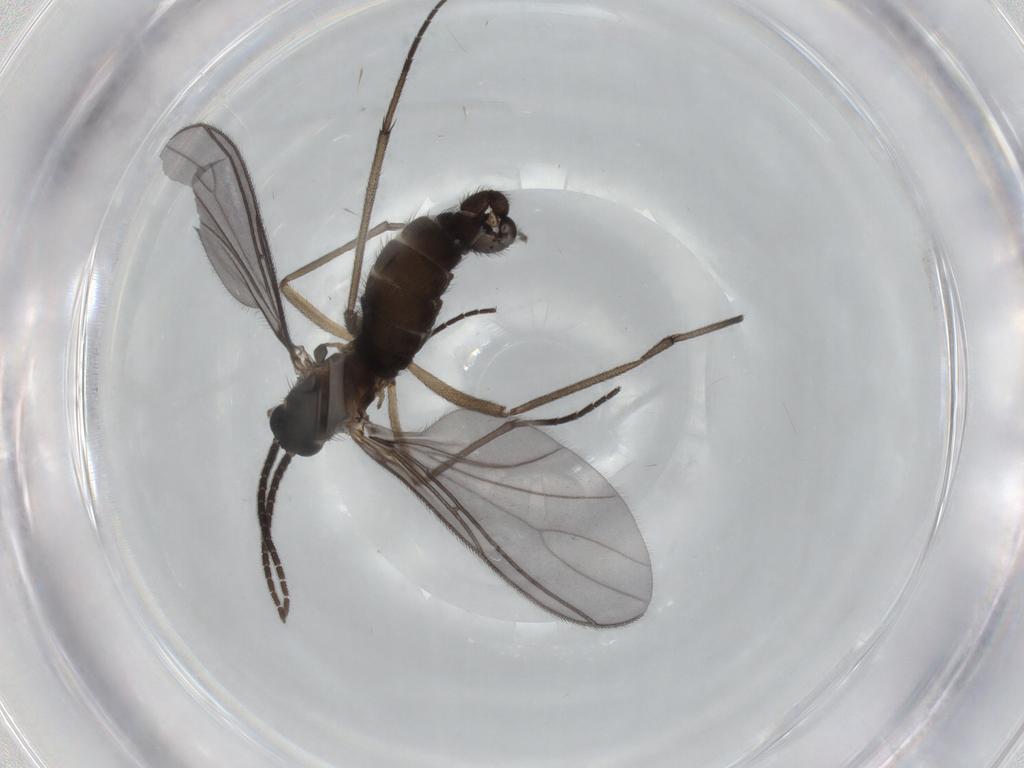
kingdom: Animalia
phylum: Arthropoda
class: Insecta
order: Diptera
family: Sciaridae
